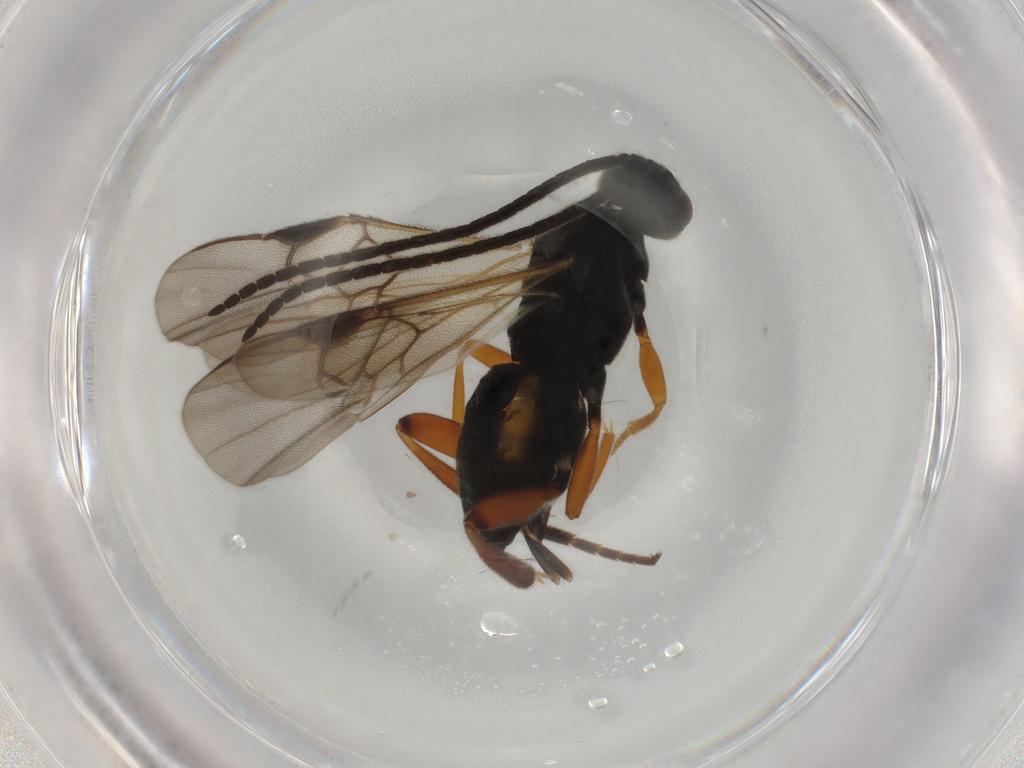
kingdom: Animalia
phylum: Arthropoda
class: Insecta
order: Hymenoptera
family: Braconidae
